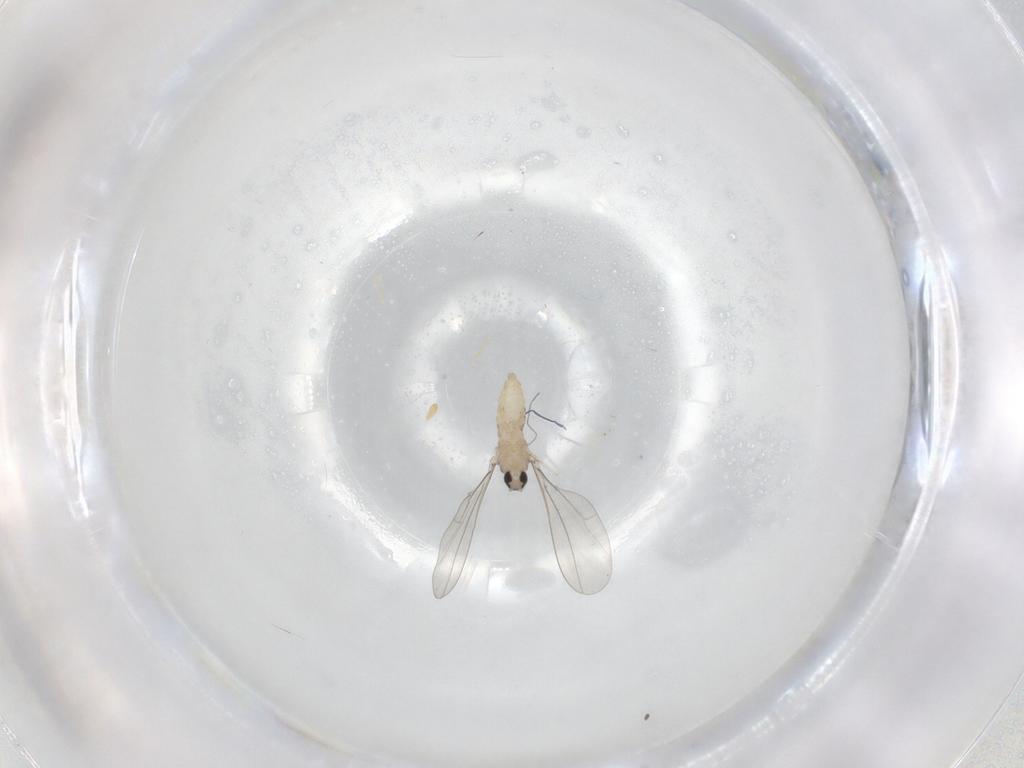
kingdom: Animalia
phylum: Arthropoda
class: Insecta
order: Diptera
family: Cecidomyiidae
